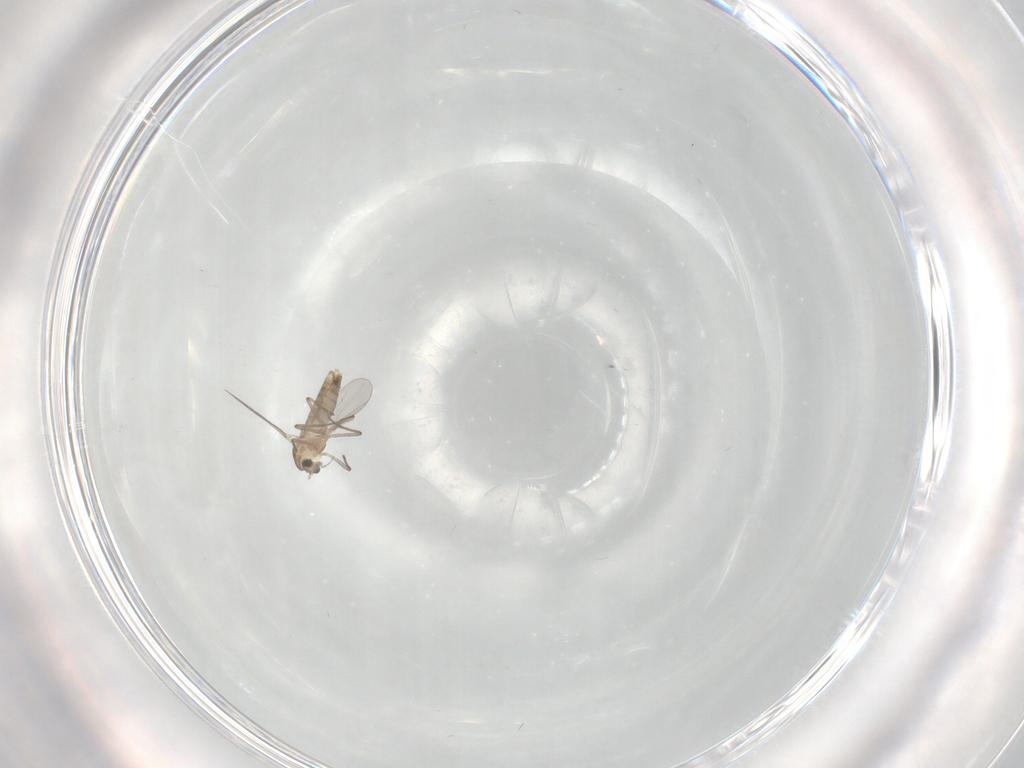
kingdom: Animalia
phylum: Arthropoda
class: Insecta
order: Diptera
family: Chironomidae
